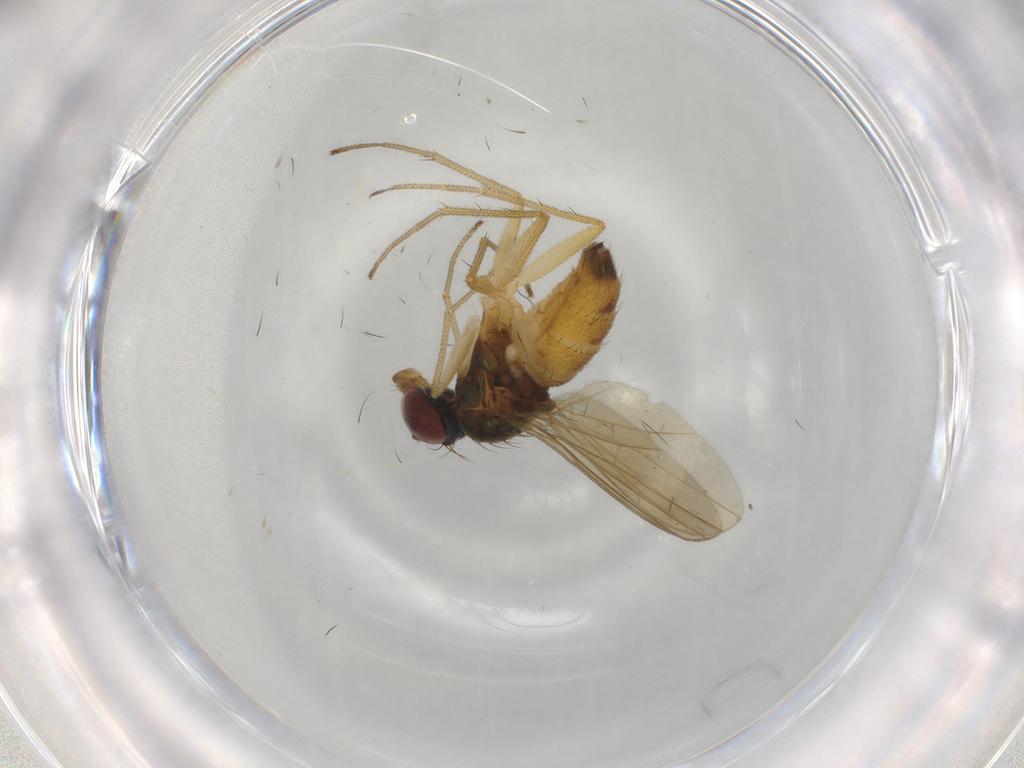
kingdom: Animalia
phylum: Arthropoda
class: Insecta
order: Diptera
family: Dolichopodidae
